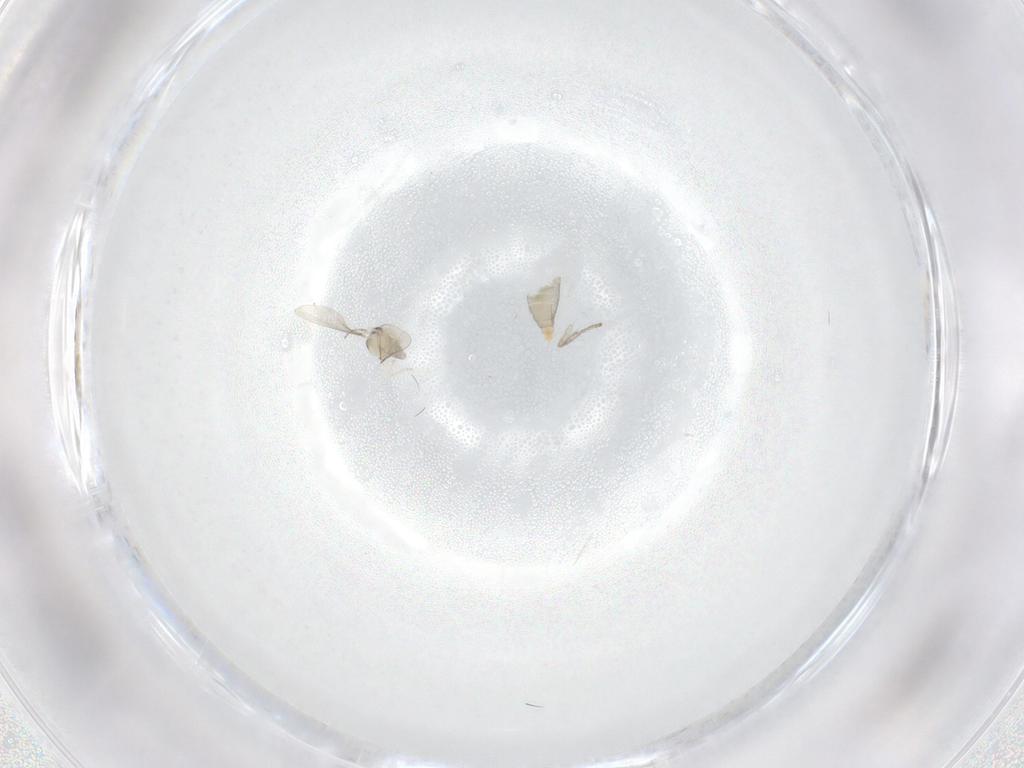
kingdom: Animalia
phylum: Arthropoda
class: Insecta
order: Diptera
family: Psychodidae
